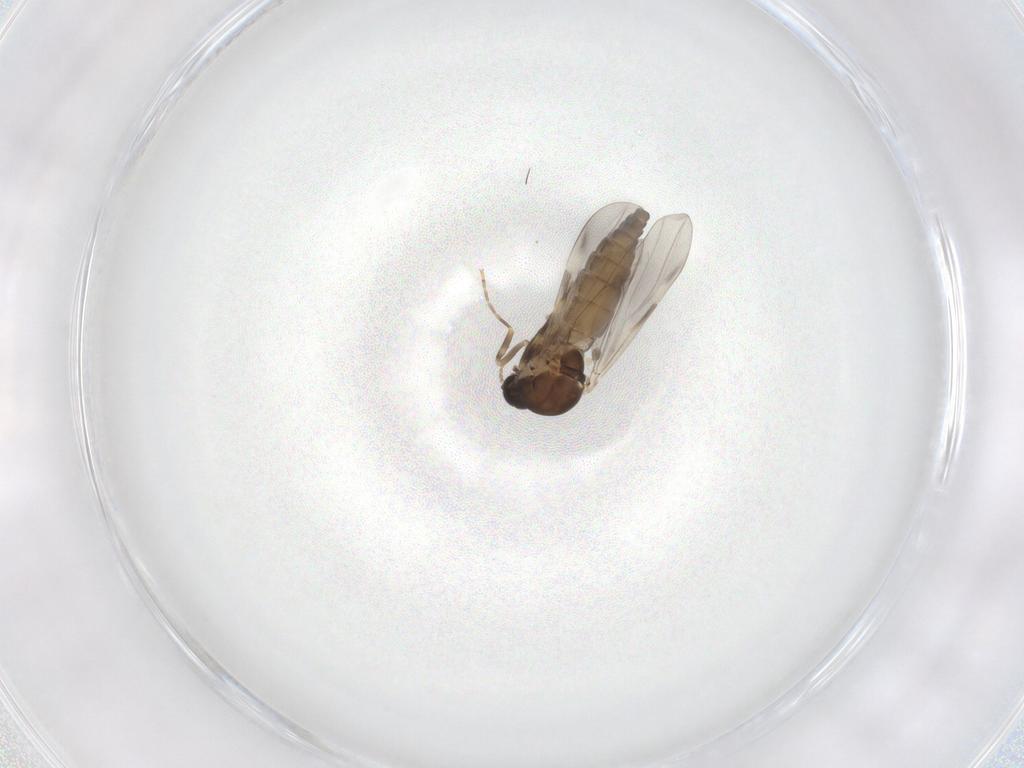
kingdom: Animalia
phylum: Arthropoda
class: Insecta
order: Diptera
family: Ceratopogonidae
